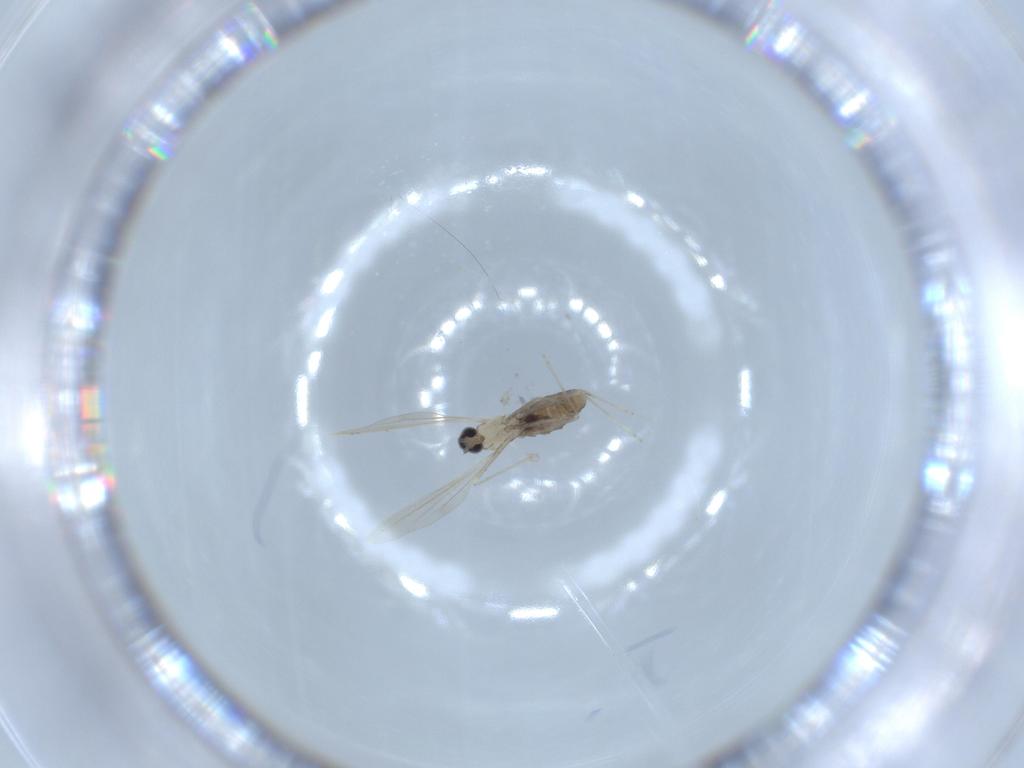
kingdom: Animalia
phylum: Arthropoda
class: Insecta
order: Diptera
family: Cecidomyiidae
